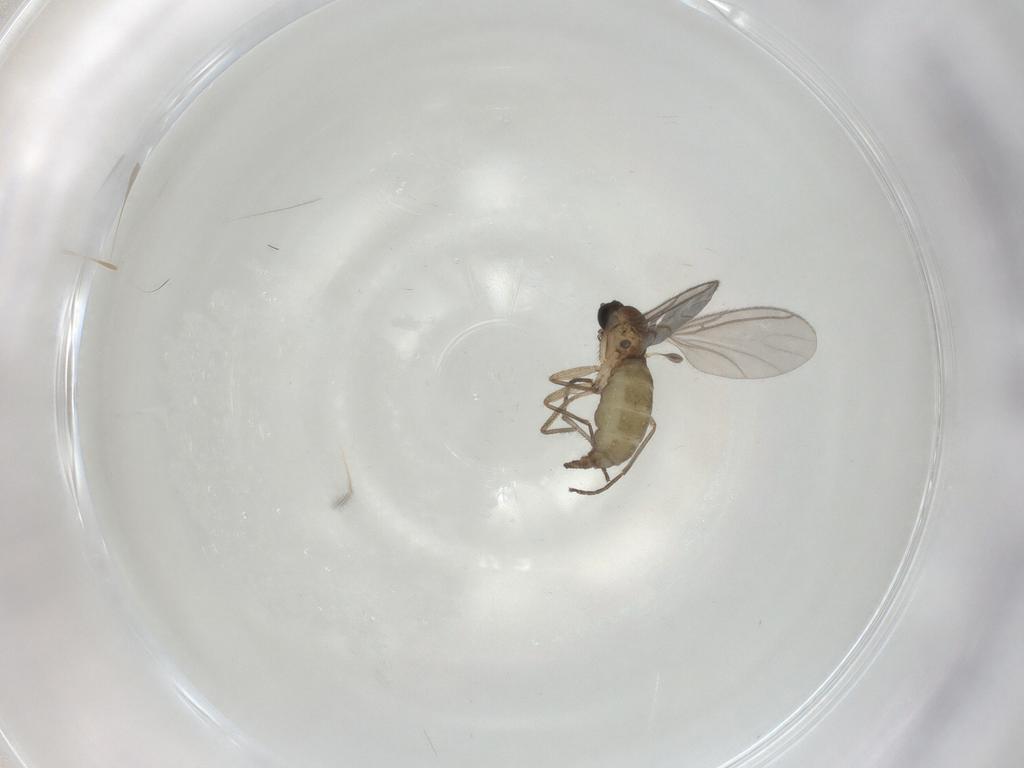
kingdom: Animalia
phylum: Arthropoda
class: Insecta
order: Diptera
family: Sciaridae
